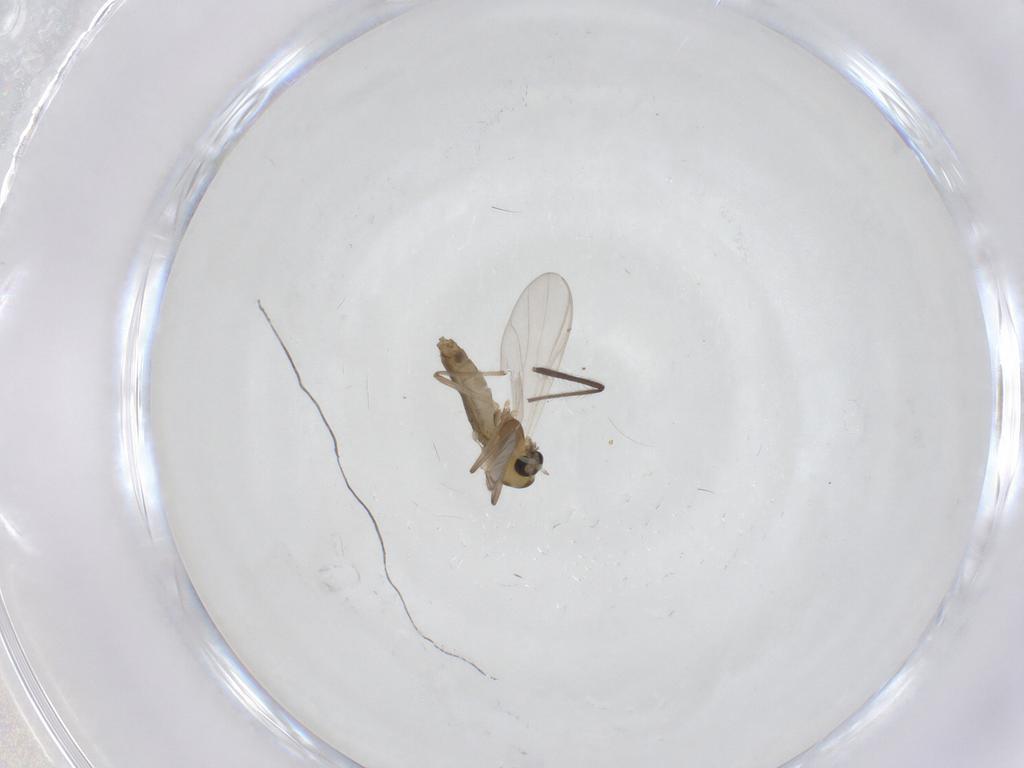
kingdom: Animalia
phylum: Arthropoda
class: Insecta
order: Diptera
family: Chironomidae
